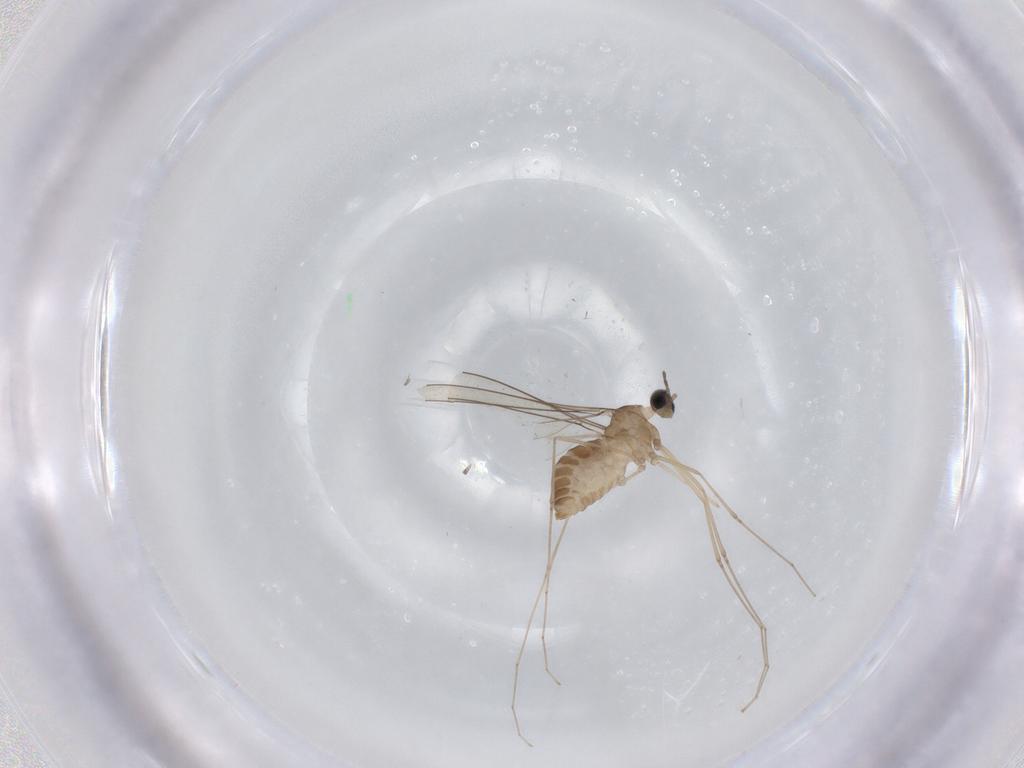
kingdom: Animalia
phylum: Arthropoda
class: Insecta
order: Diptera
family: Cecidomyiidae
